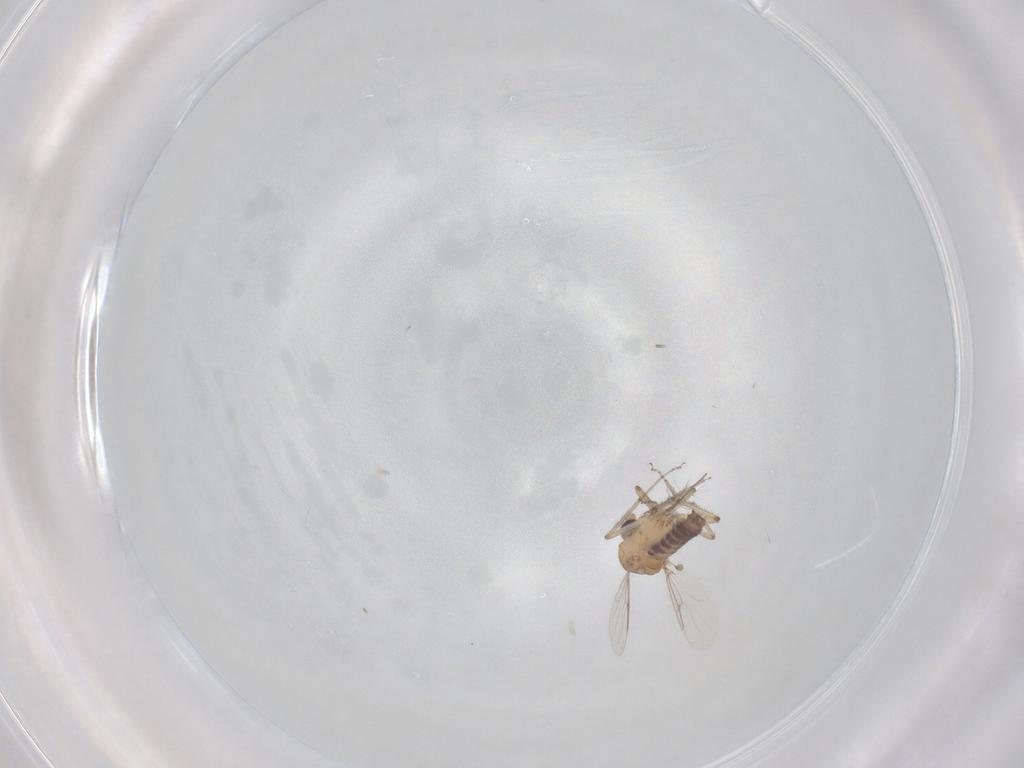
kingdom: Animalia
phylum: Arthropoda
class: Insecta
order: Diptera
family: Ceratopogonidae
